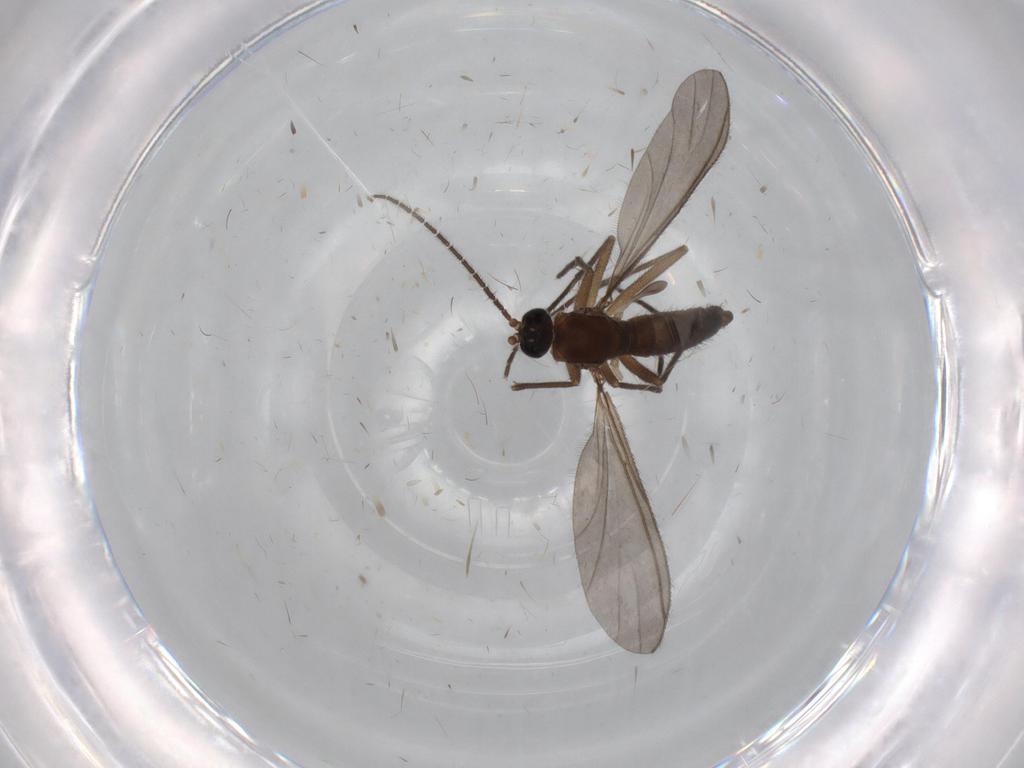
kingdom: Animalia
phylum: Arthropoda
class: Insecta
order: Diptera
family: Sciaridae
